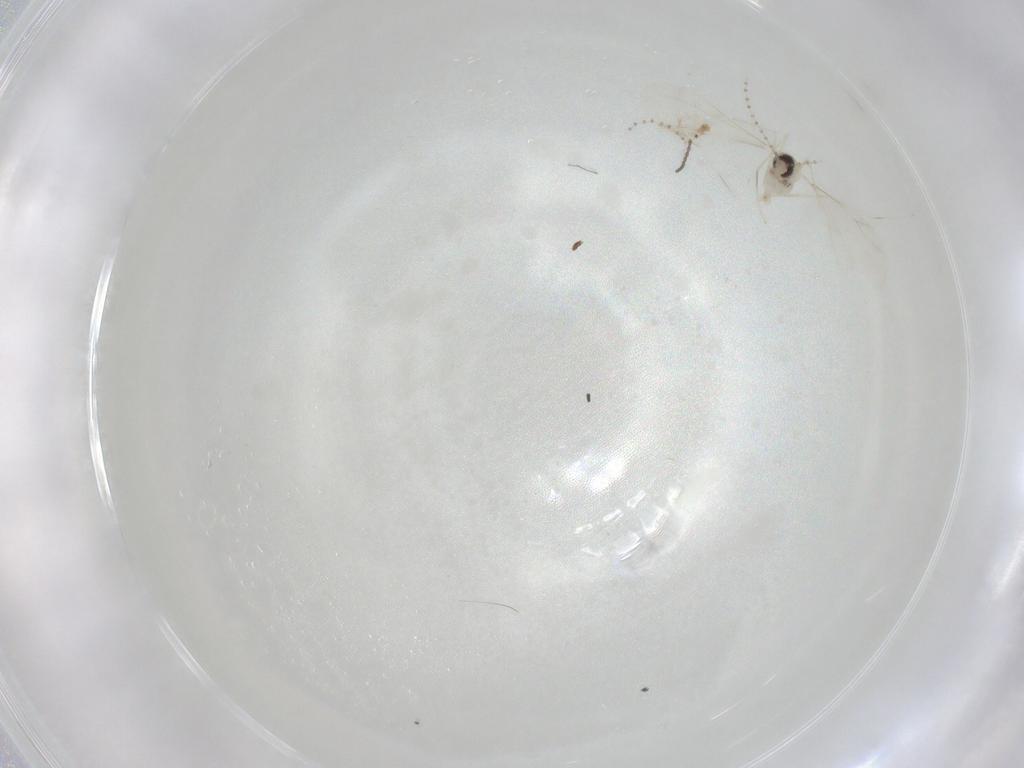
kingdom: Animalia
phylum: Arthropoda
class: Insecta
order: Diptera
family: Cecidomyiidae
